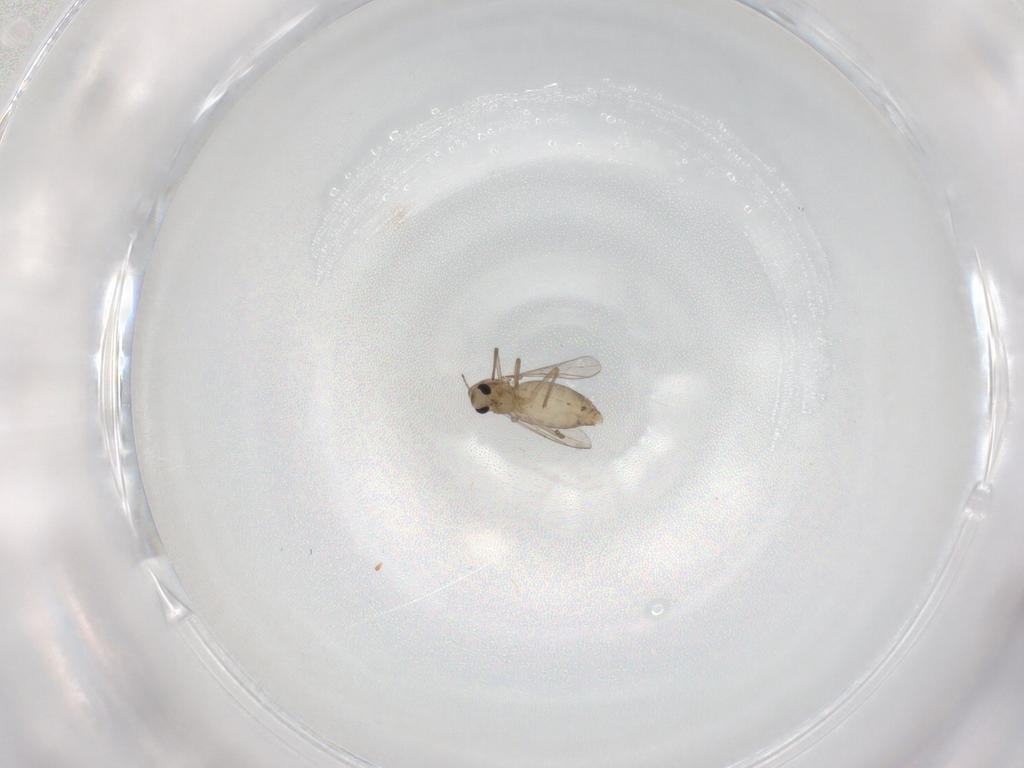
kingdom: Animalia
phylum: Arthropoda
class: Insecta
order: Diptera
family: Chironomidae
